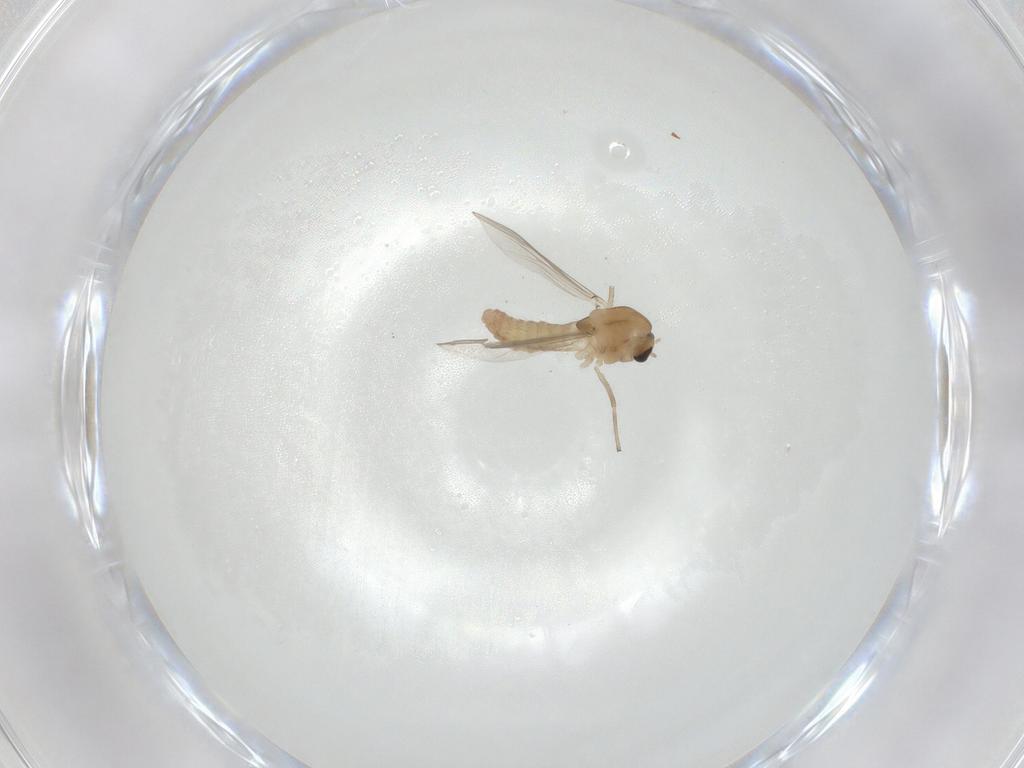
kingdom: Animalia
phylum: Arthropoda
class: Insecta
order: Diptera
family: Chironomidae
